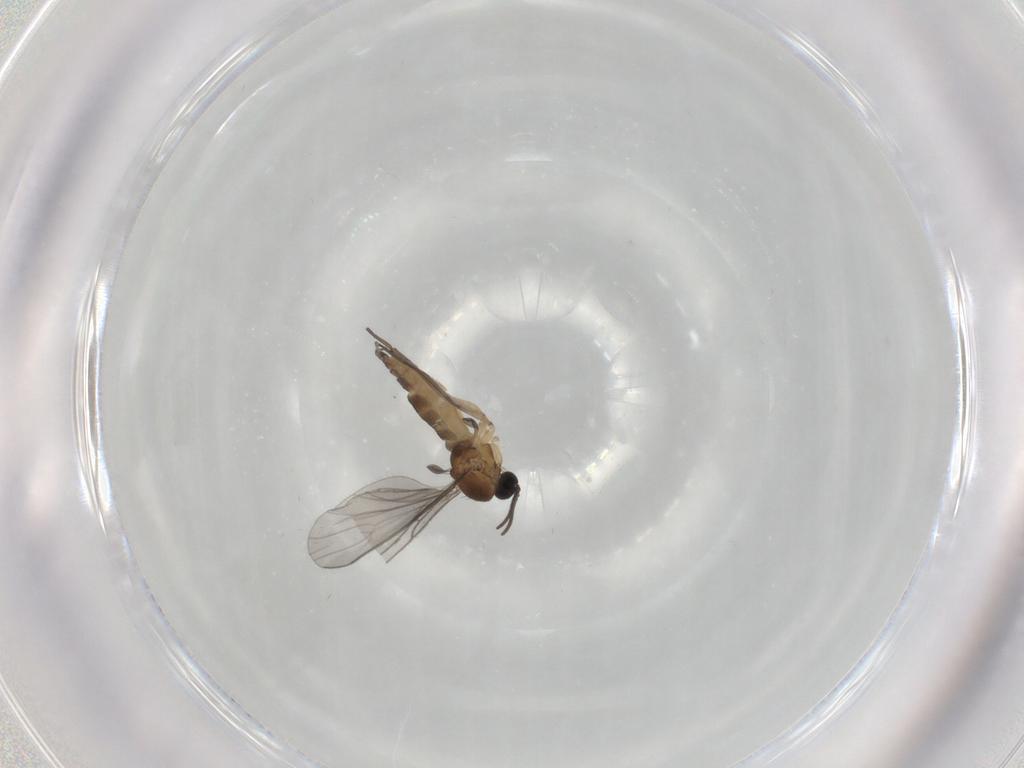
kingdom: Animalia
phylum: Arthropoda
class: Insecta
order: Diptera
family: Sciaridae
